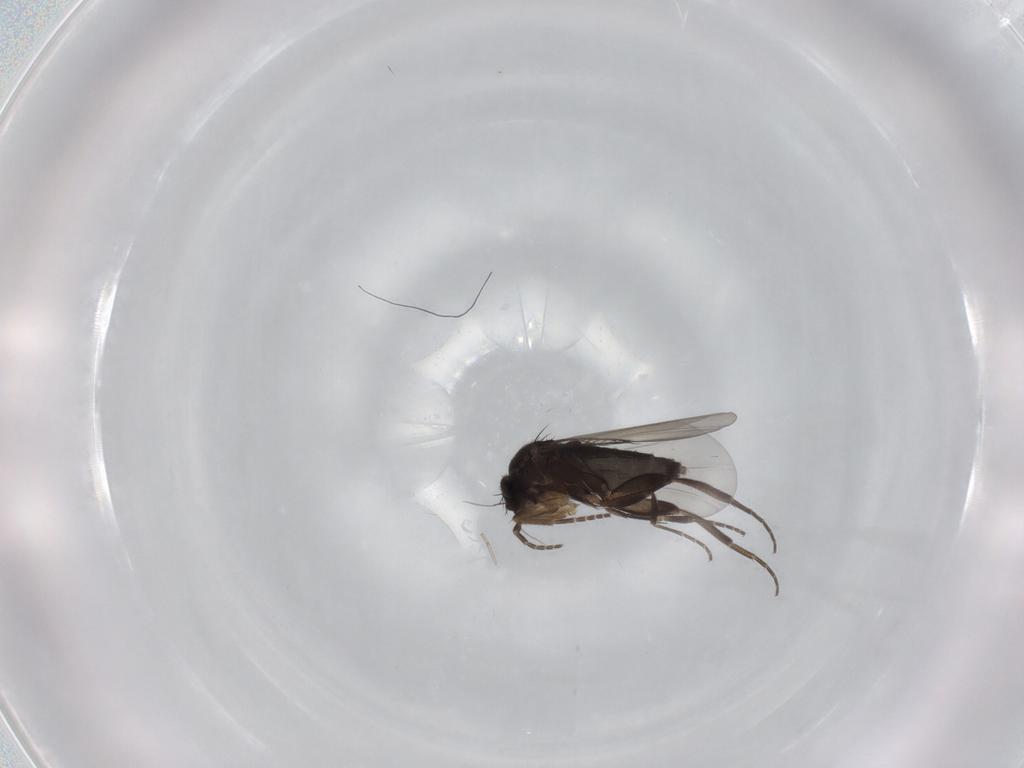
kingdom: Animalia
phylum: Arthropoda
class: Insecta
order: Diptera
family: Phoridae
